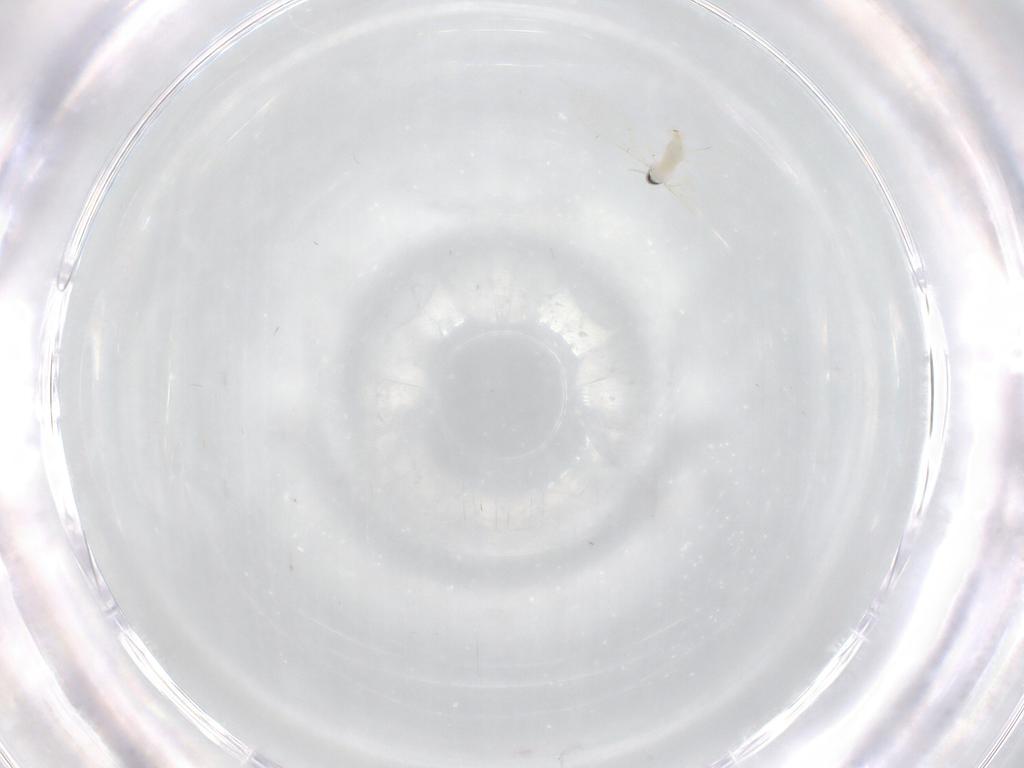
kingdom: Animalia
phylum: Arthropoda
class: Insecta
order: Diptera
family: Cecidomyiidae
